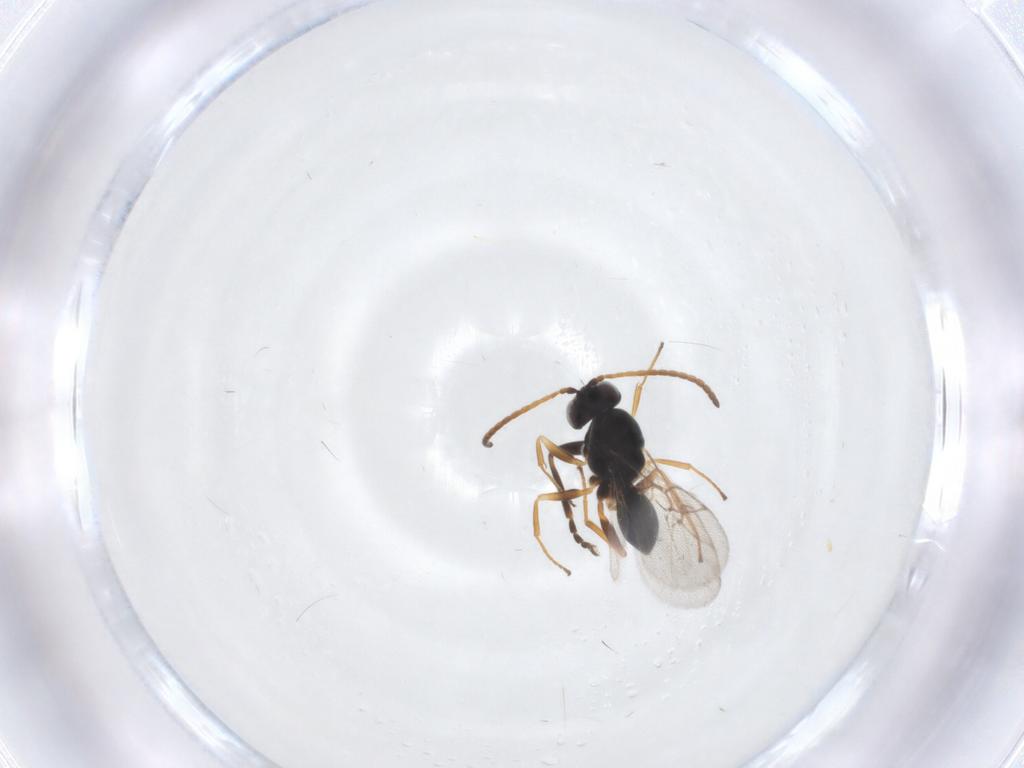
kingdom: Animalia
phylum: Arthropoda
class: Insecta
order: Hymenoptera
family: Cynipidae
